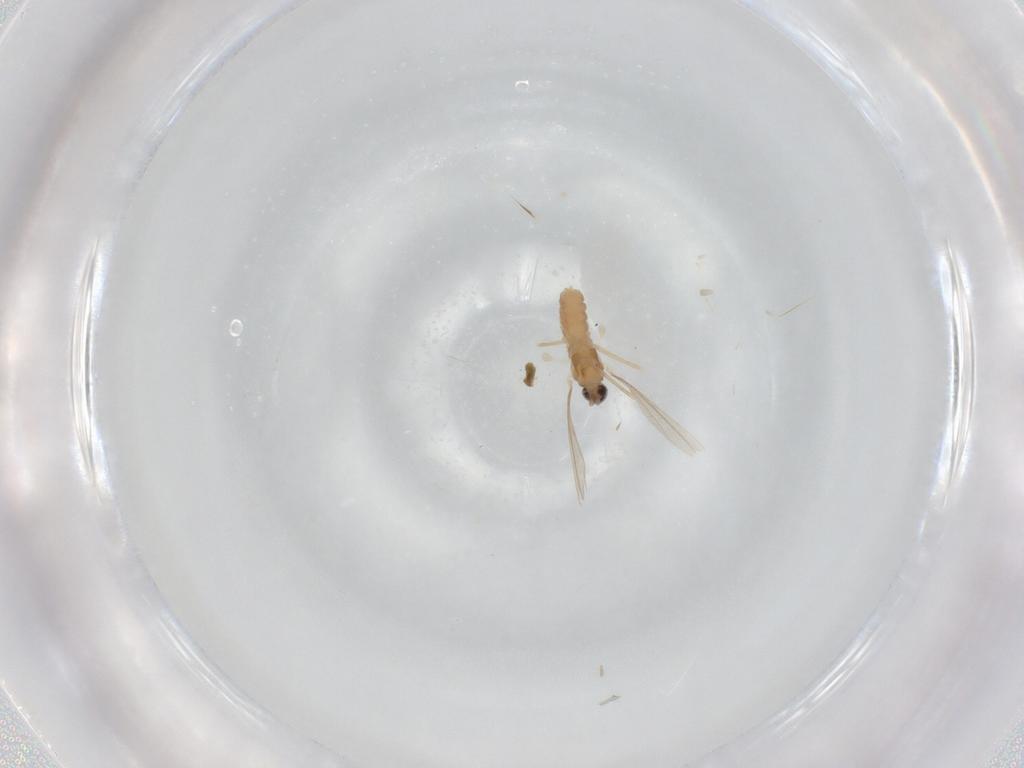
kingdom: Animalia
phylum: Arthropoda
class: Insecta
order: Diptera
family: Cecidomyiidae
